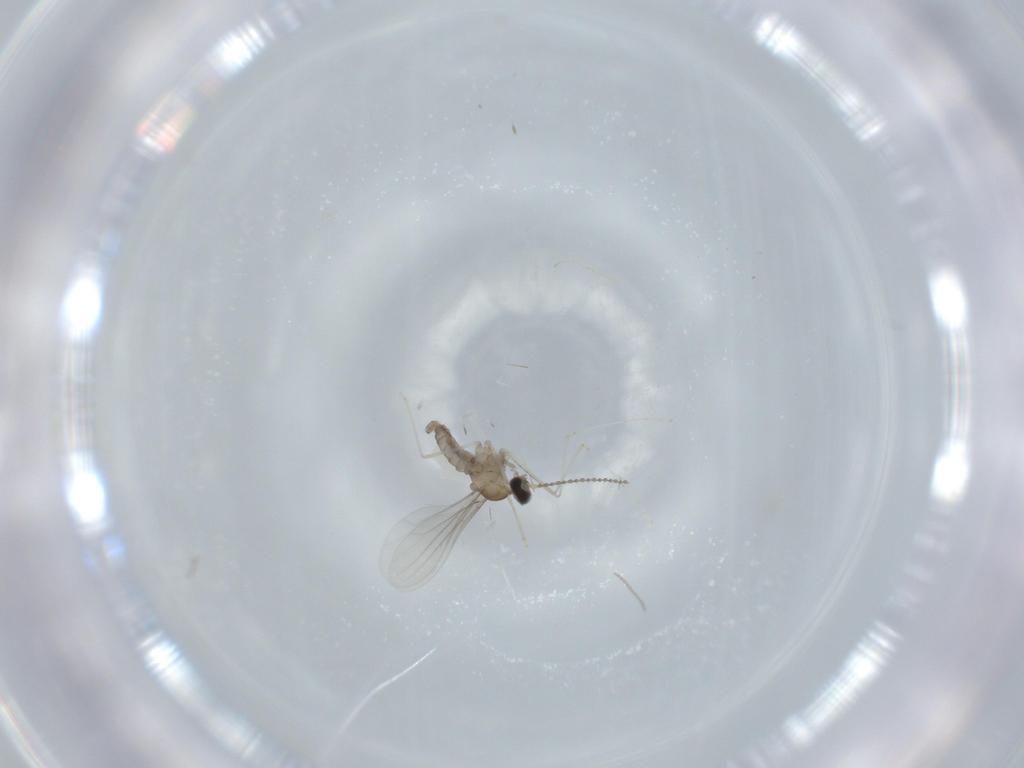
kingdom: Animalia
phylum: Arthropoda
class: Insecta
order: Diptera
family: Cecidomyiidae
